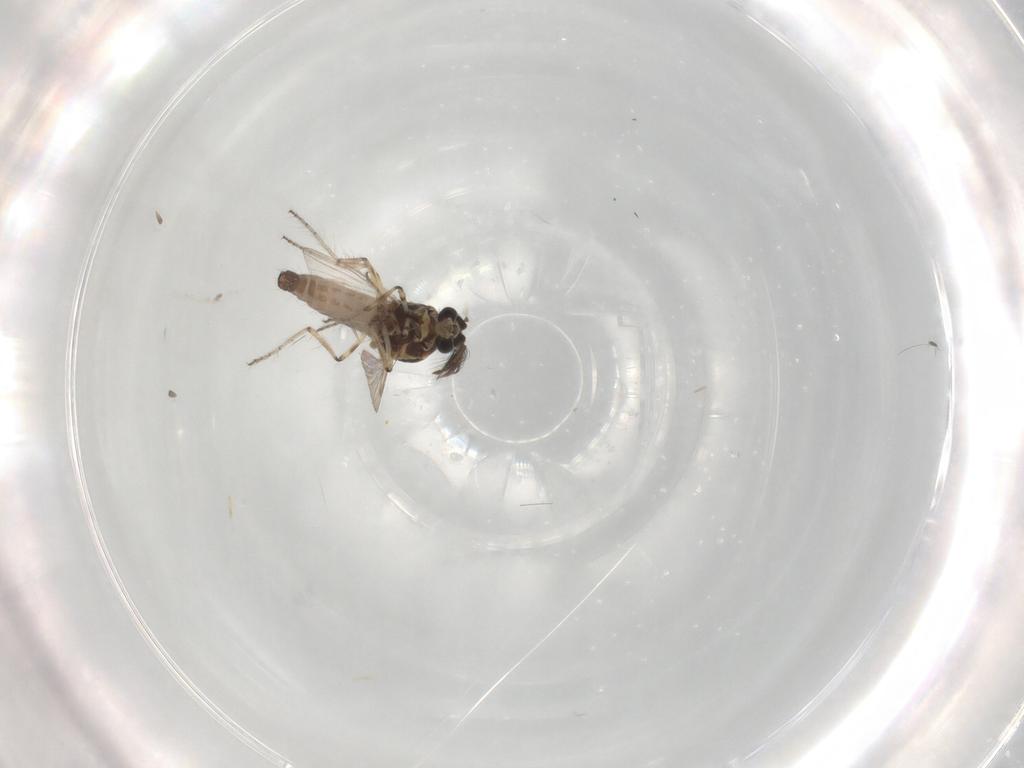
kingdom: Animalia
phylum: Arthropoda
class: Insecta
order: Diptera
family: Ceratopogonidae
